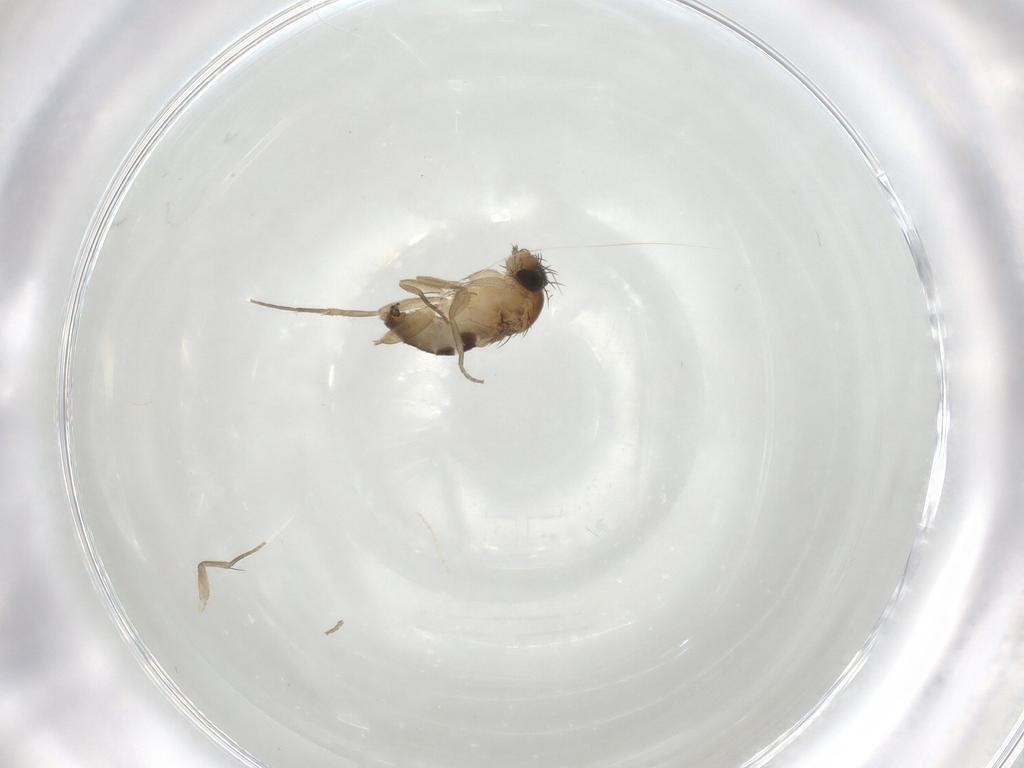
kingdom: Animalia
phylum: Arthropoda
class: Insecta
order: Diptera
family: Phoridae
